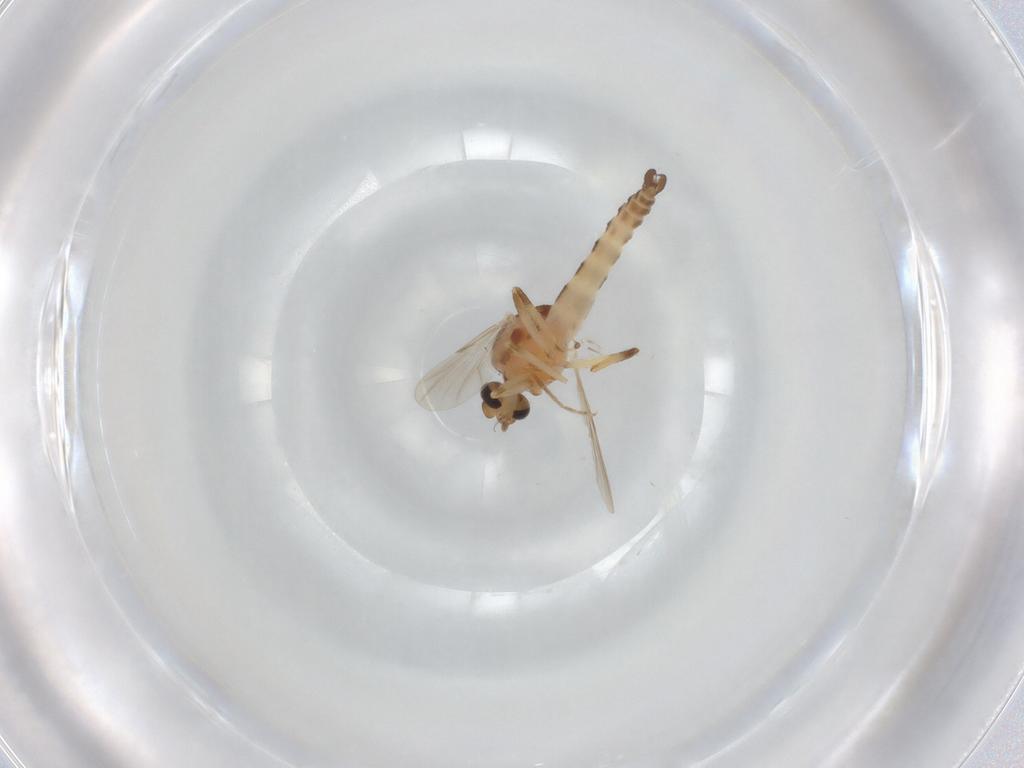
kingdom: Animalia
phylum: Arthropoda
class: Insecta
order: Diptera
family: Ceratopogonidae
